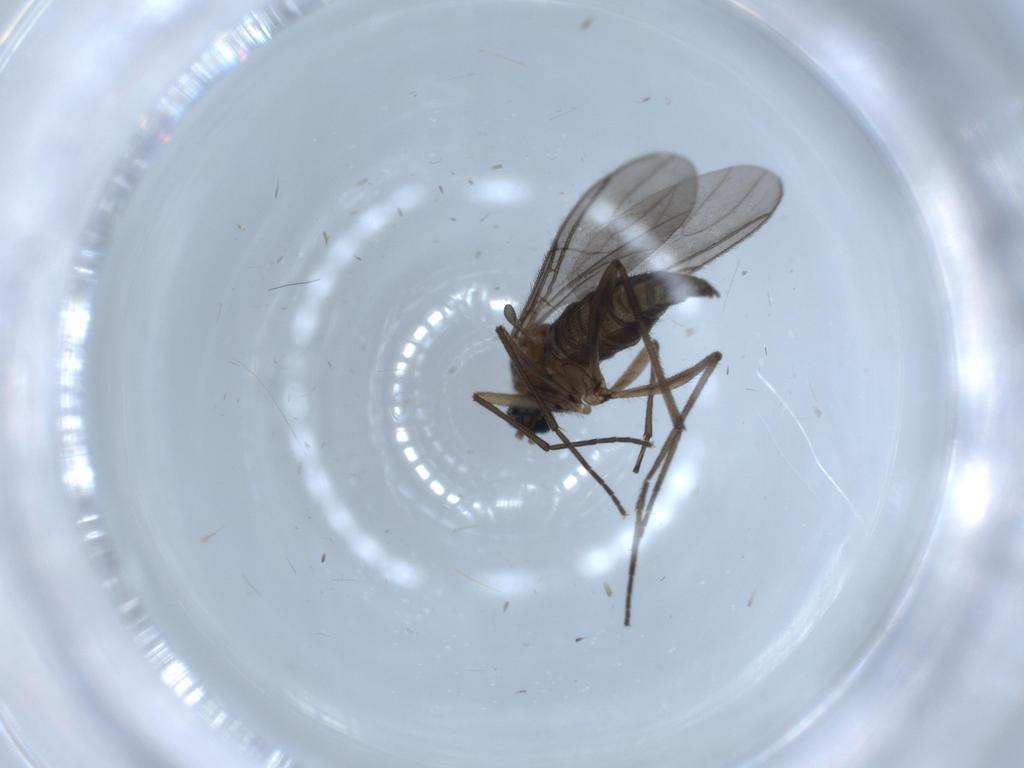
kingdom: Animalia
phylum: Arthropoda
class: Insecta
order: Diptera
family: Sciaridae
